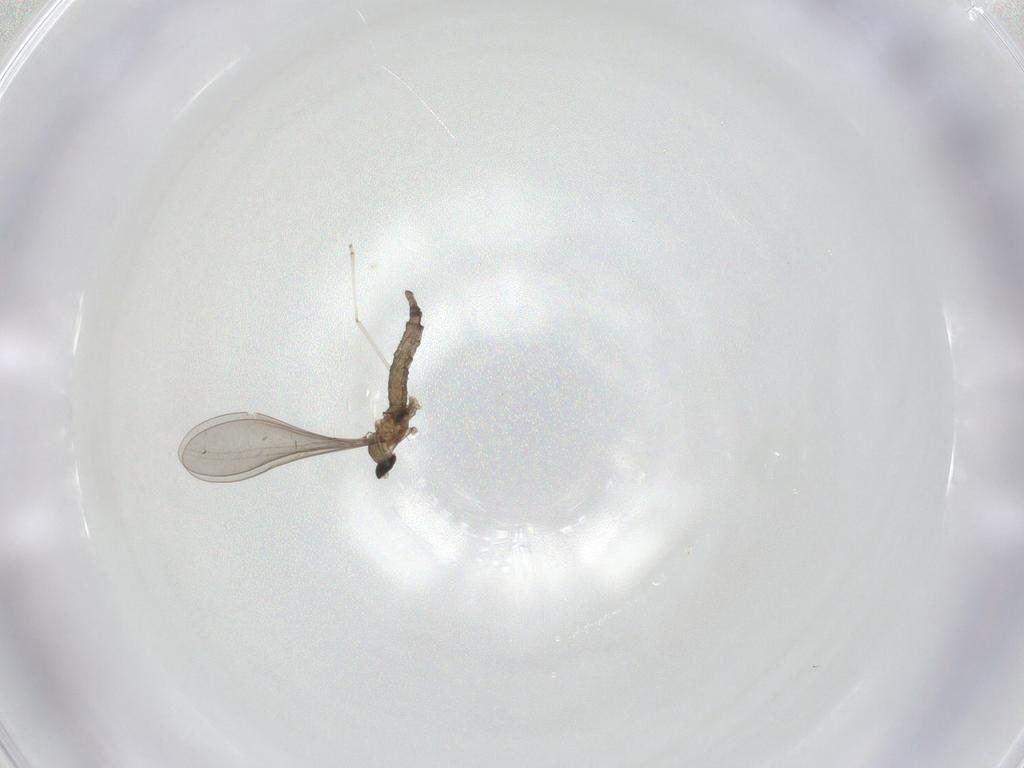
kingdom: Animalia
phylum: Arthropoda
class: Insecta
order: Diptera
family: Cecidomyiidae
